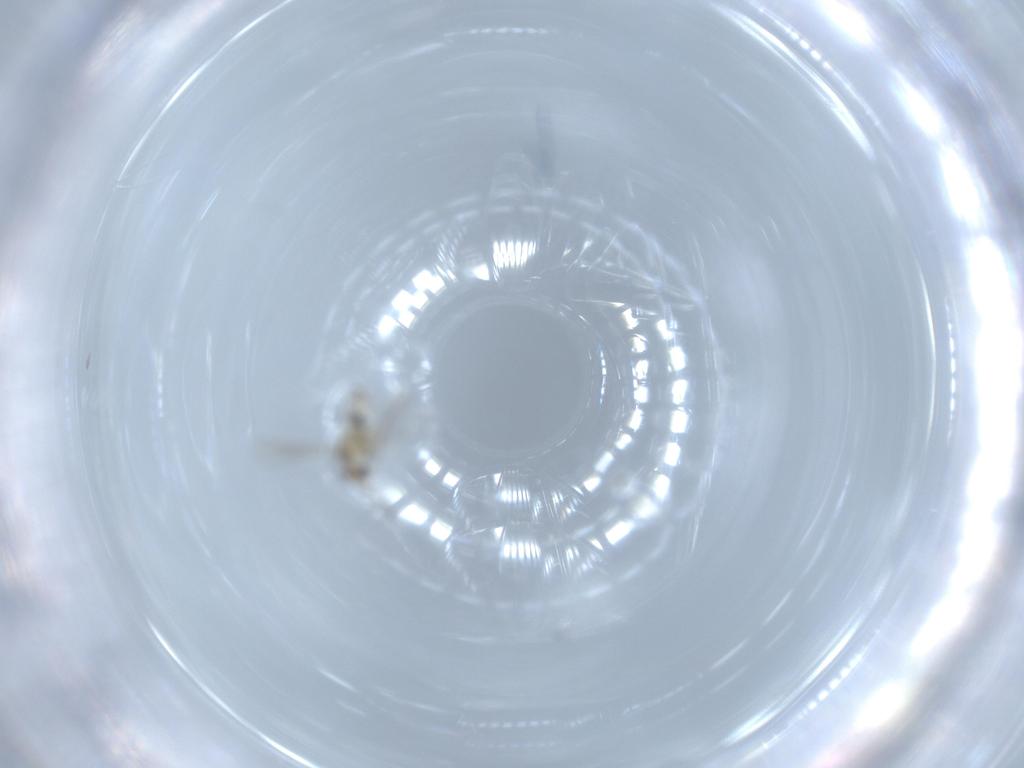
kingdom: Animalia
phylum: Arthropoda
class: Insecta
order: Diptera
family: Cecidomyiidae
